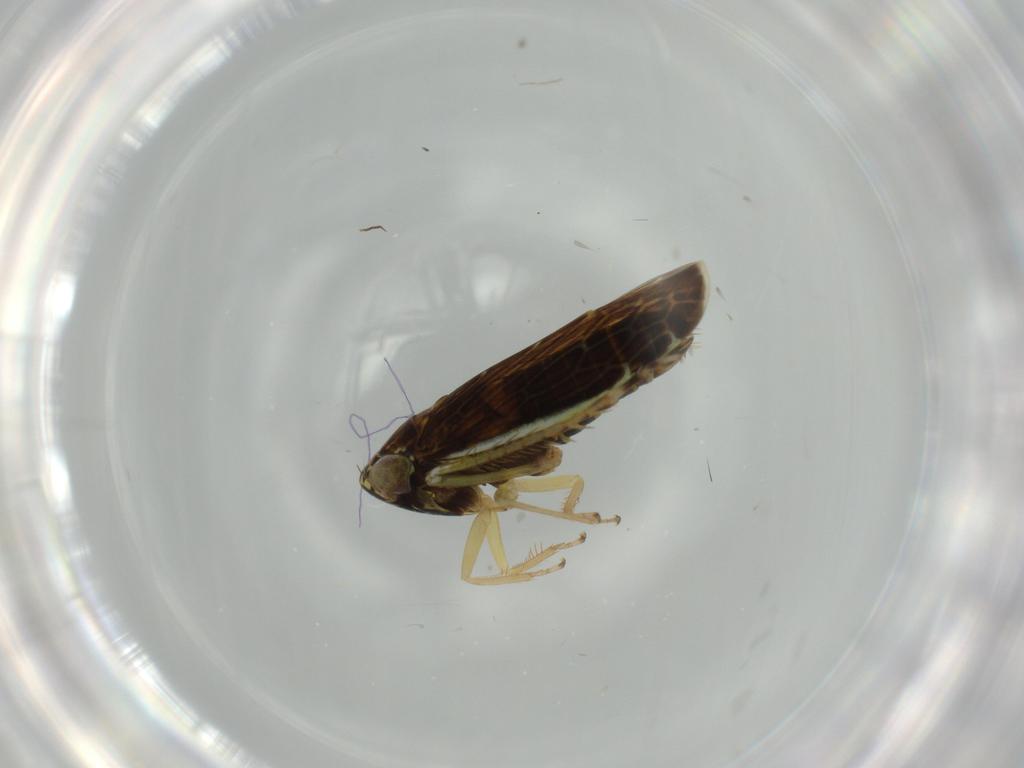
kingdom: Animalia
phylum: Arthropoda
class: Insecta
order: Hemiptera
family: Cicadellidae
